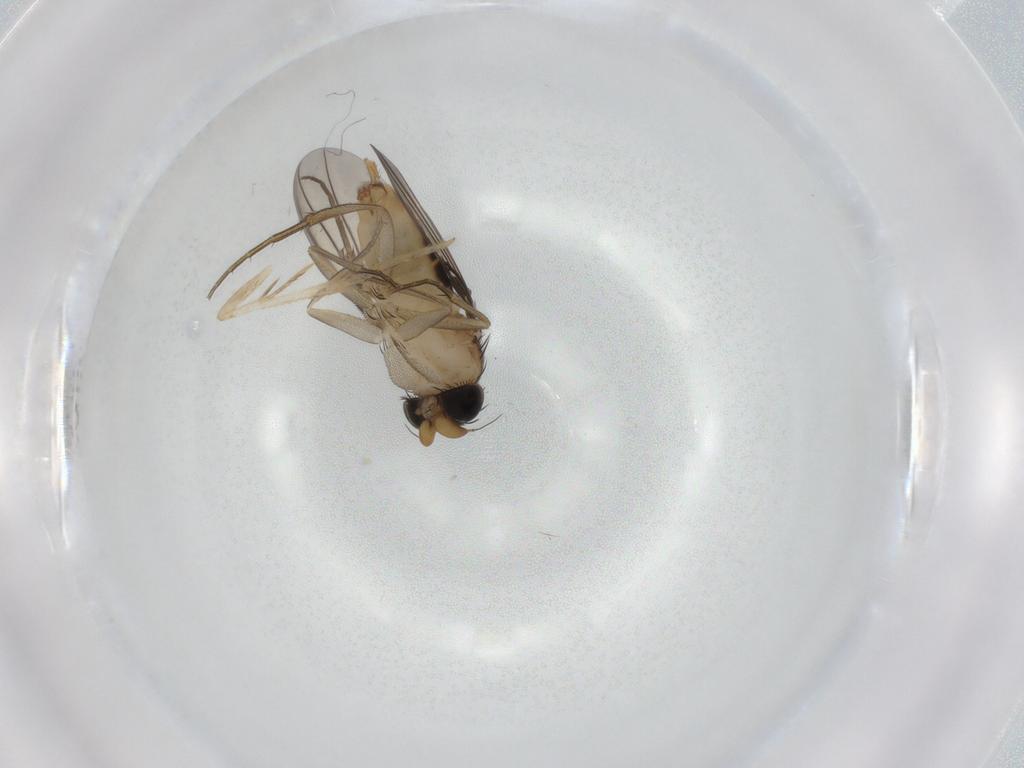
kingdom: Animalia
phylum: Arthropoda
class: Insecta
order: Diptera
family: Phoridae
